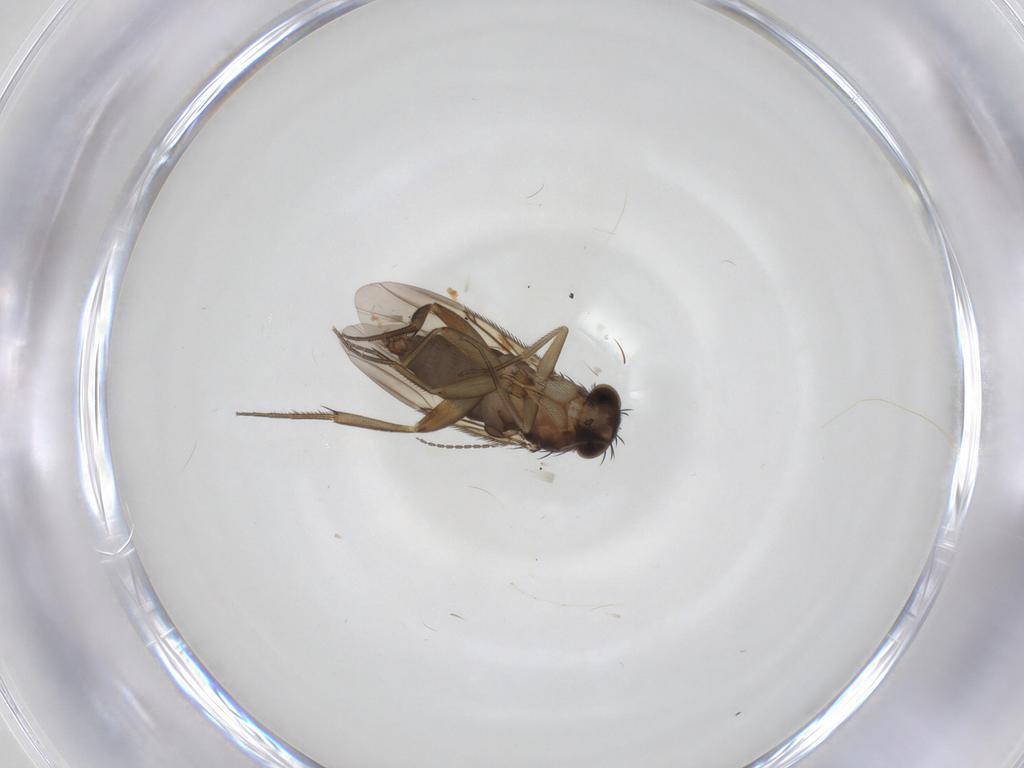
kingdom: Animalia
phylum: Arthropoda
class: Insecta
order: Diptera
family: Phoridae
